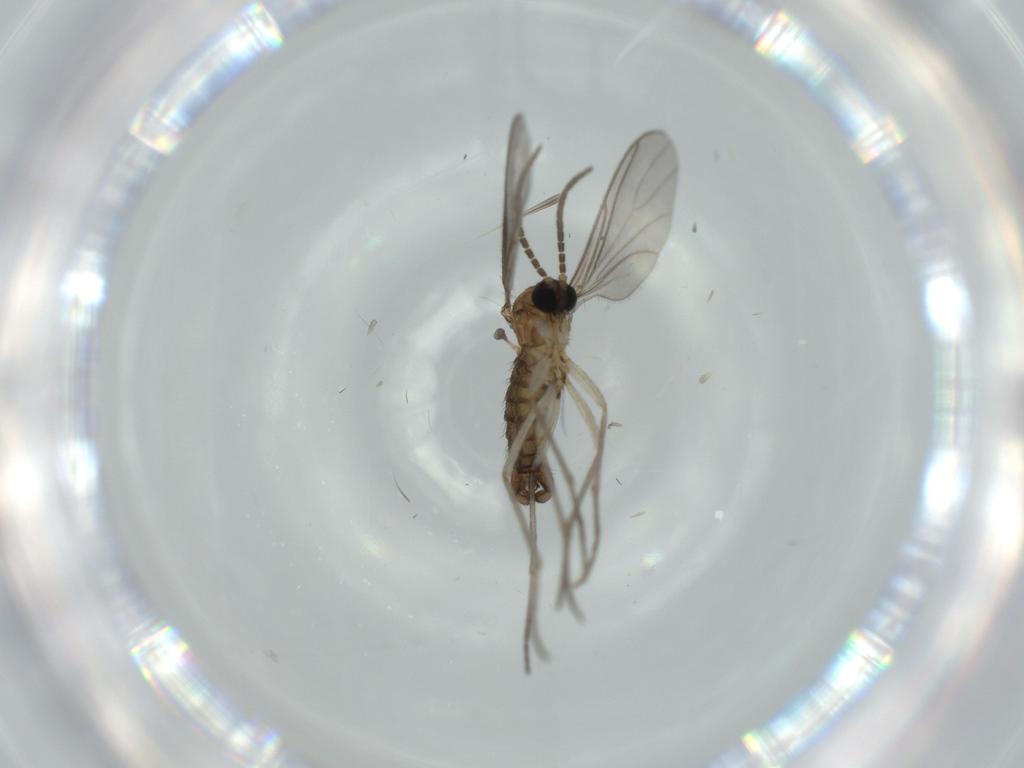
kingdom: Animalia
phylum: Arthropoda
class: Insecta
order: Diptera
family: Sciaridae
